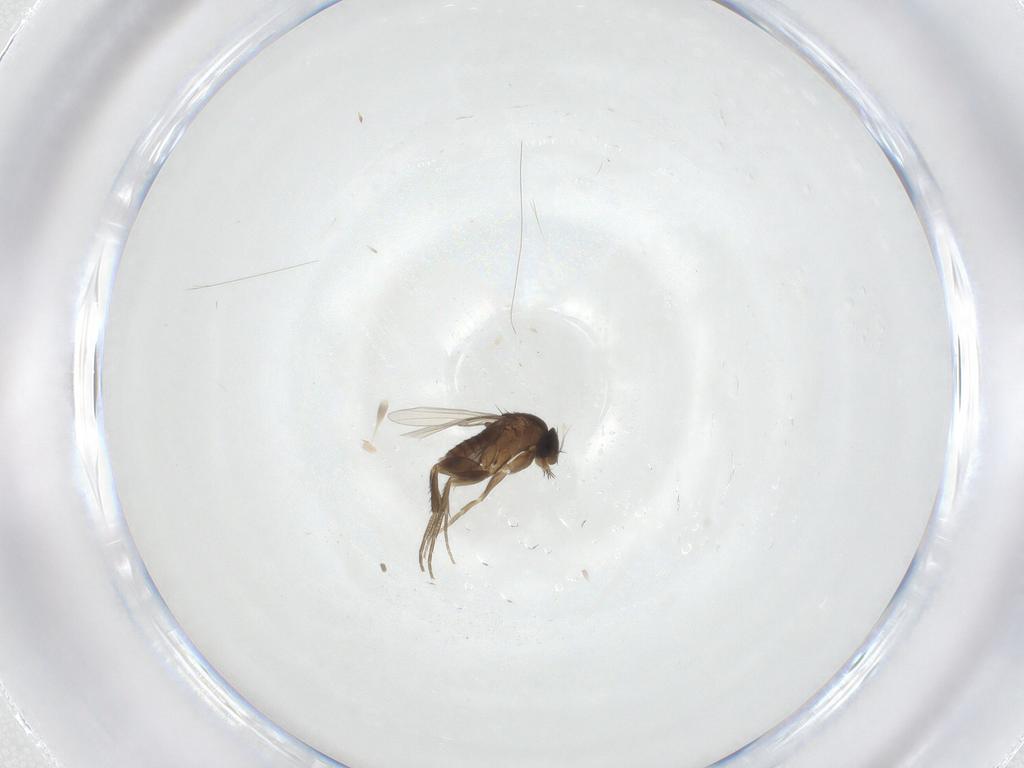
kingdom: Animalia
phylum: Arthropoda
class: Insecta
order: Diptera
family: Phoridae
